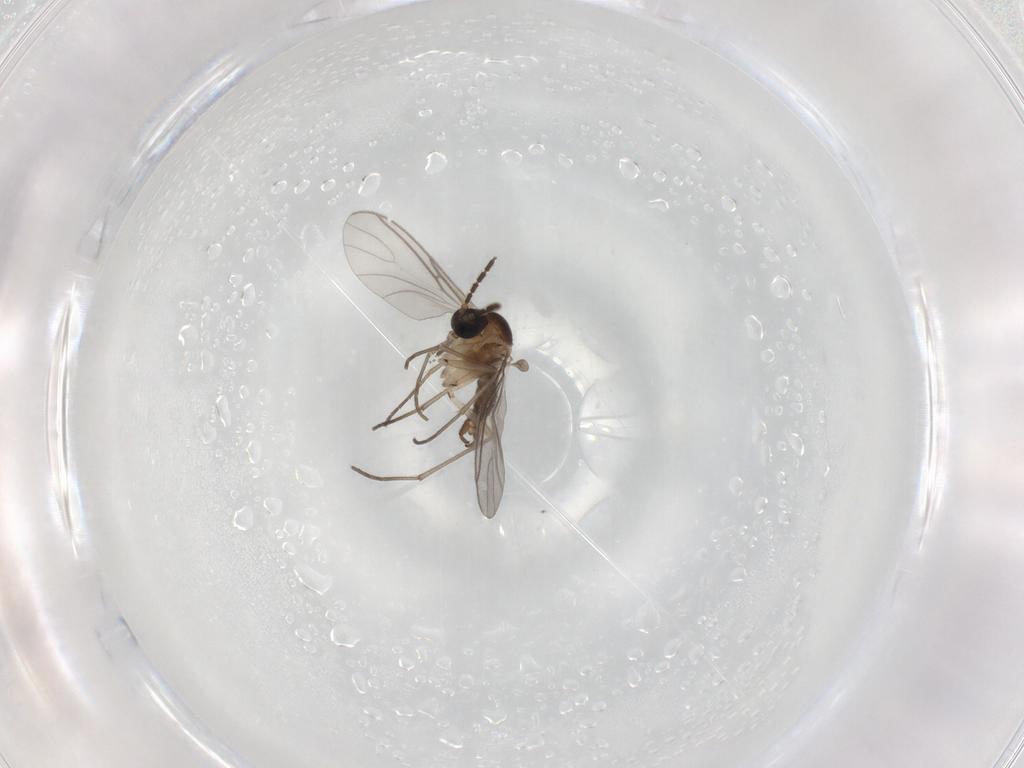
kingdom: Animalia
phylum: Arthropoda
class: Insecta
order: Diptera
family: Sciaridae
